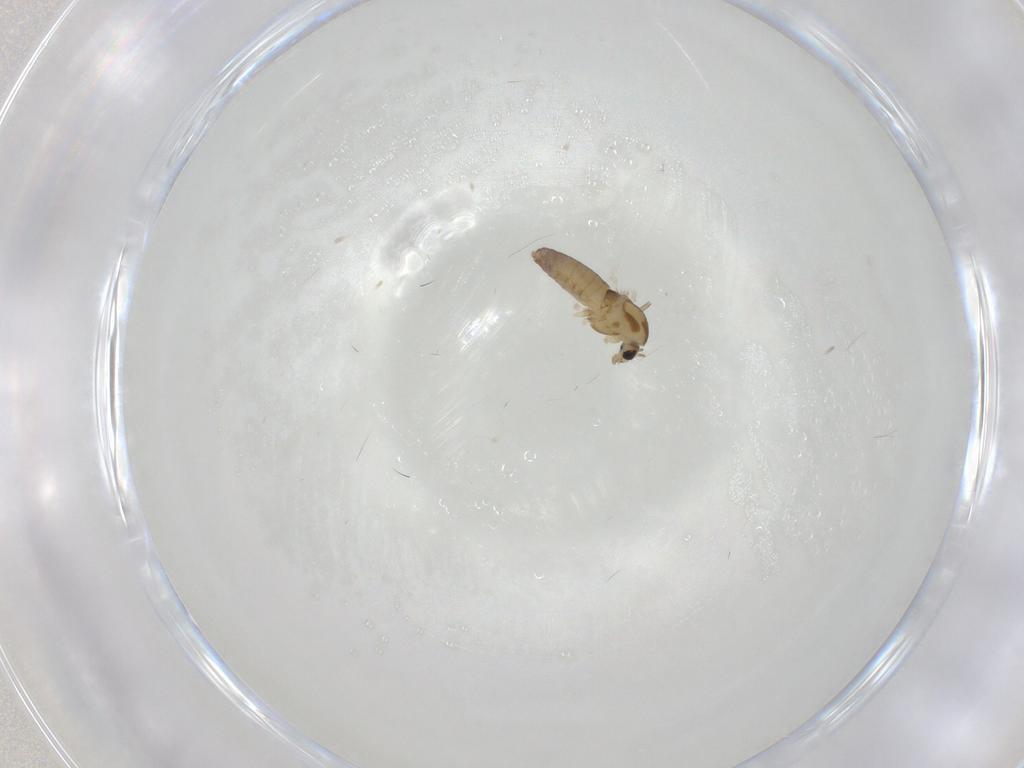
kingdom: Animalia
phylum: Arthropoda
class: Insecta
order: Diptera
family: Chironomidae
